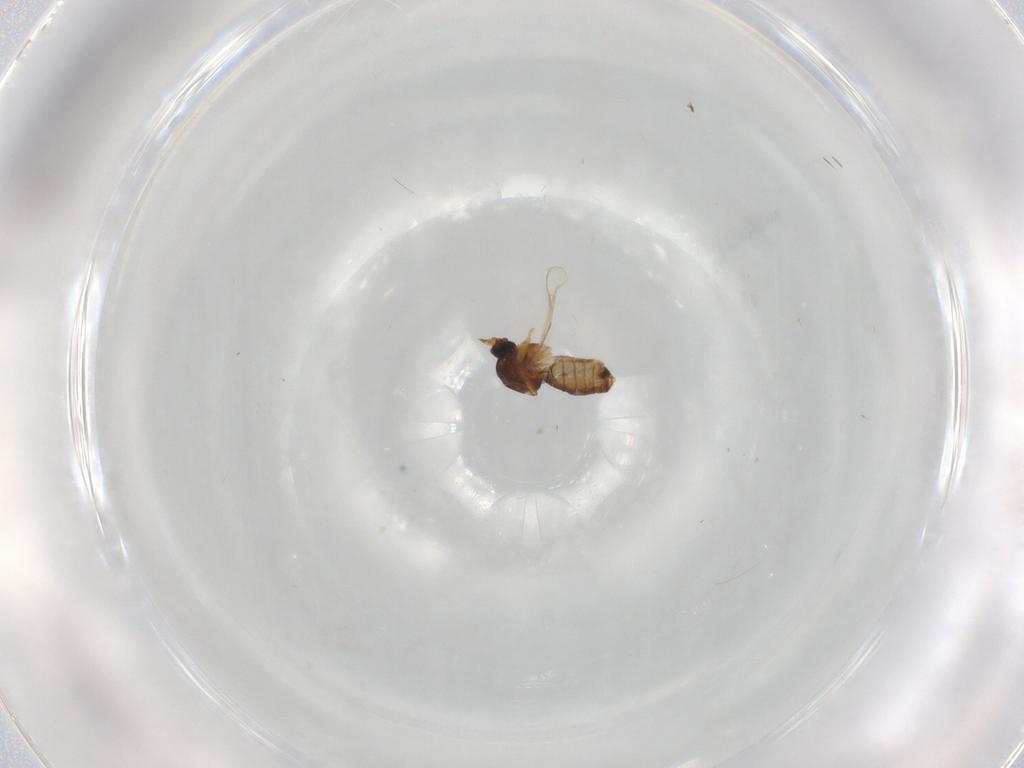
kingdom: Animalia
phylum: Arthropoda
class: Insecta
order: Diptera
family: Ceratopogonidae
